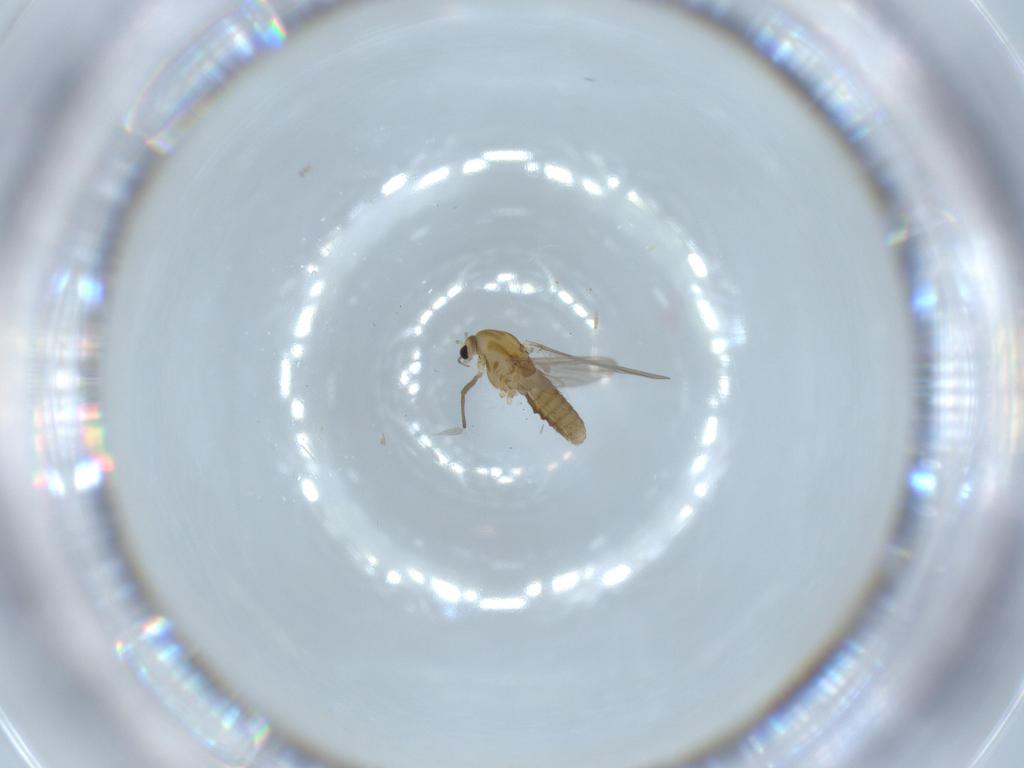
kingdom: Animalia
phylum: Arthropoda
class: Insecta
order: Diptera
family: Chironomidae
